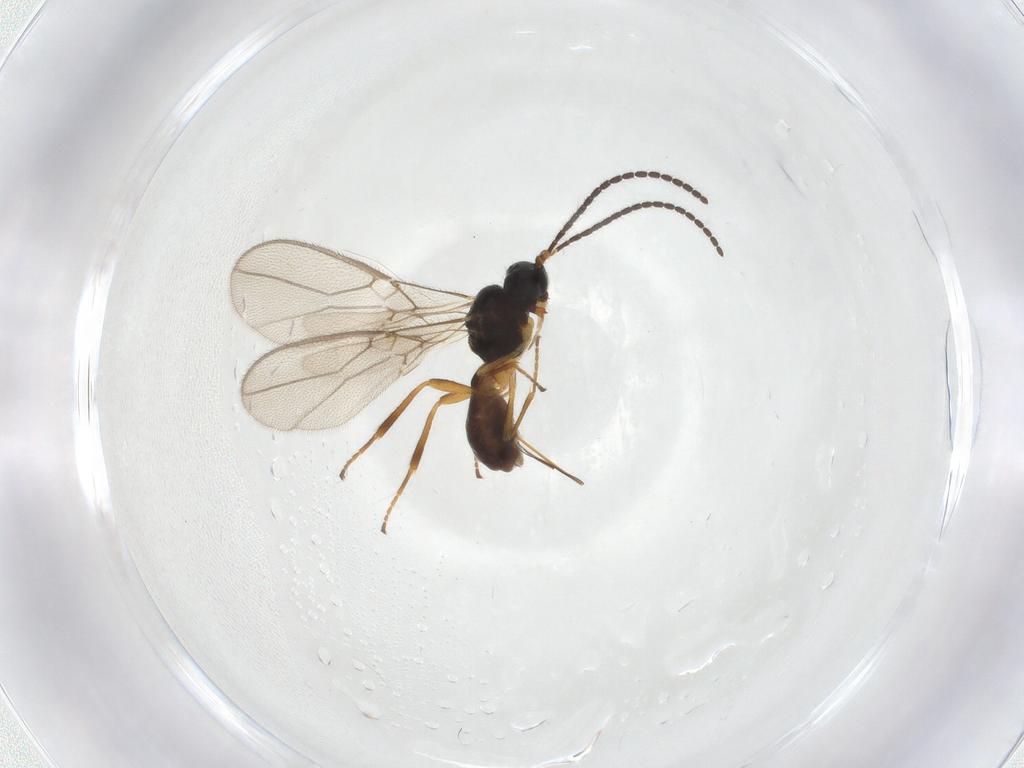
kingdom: Animalia
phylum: Arthropoda
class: Insecta
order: Hymenoptera
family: Braconidae
